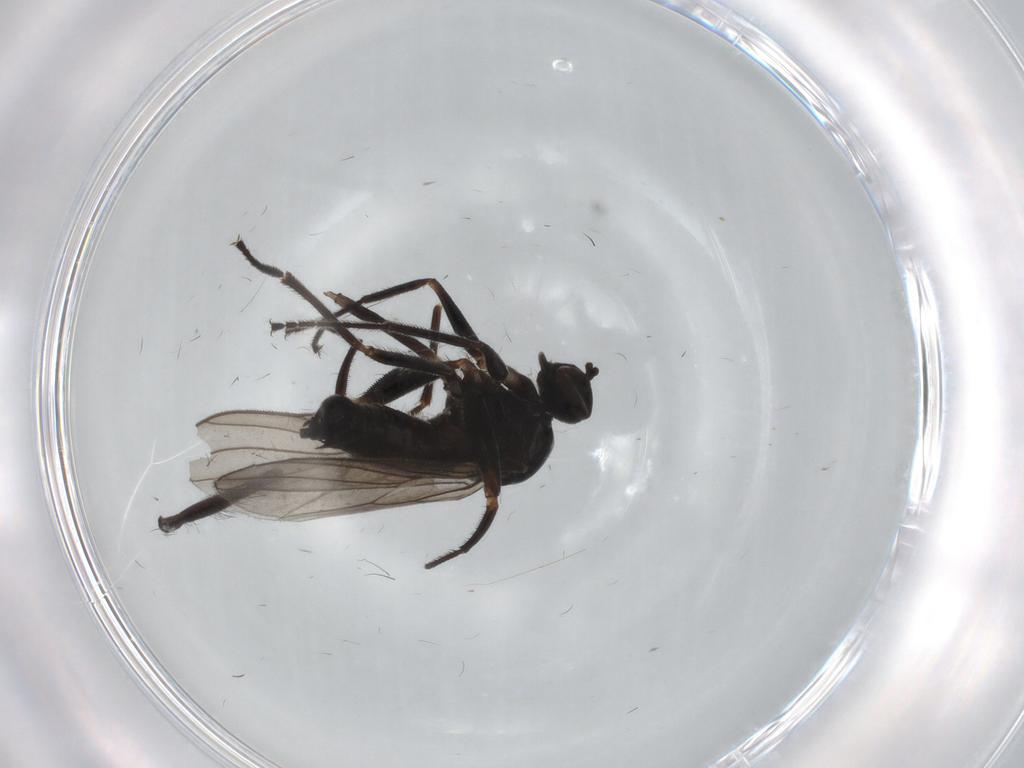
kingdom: Animalia
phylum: Arthropoda
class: Insecta
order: Diptera
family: Hybotidae
